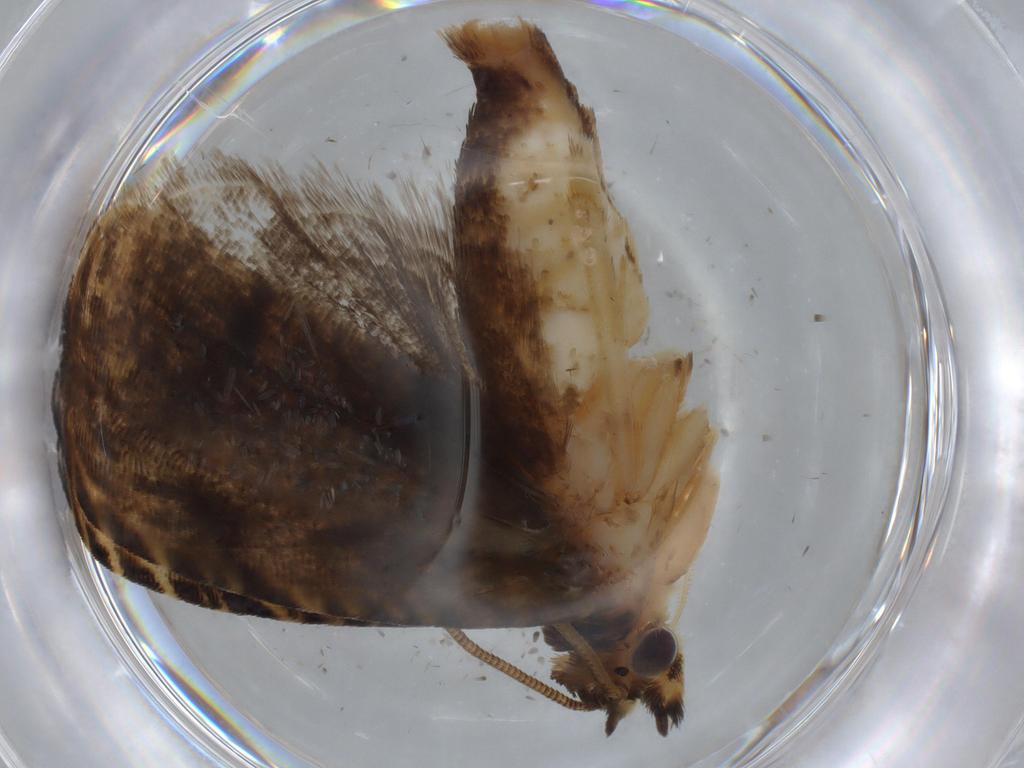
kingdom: Animalia
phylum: Arthropoda
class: Insecta
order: Lepidoptera
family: Tortricidae
